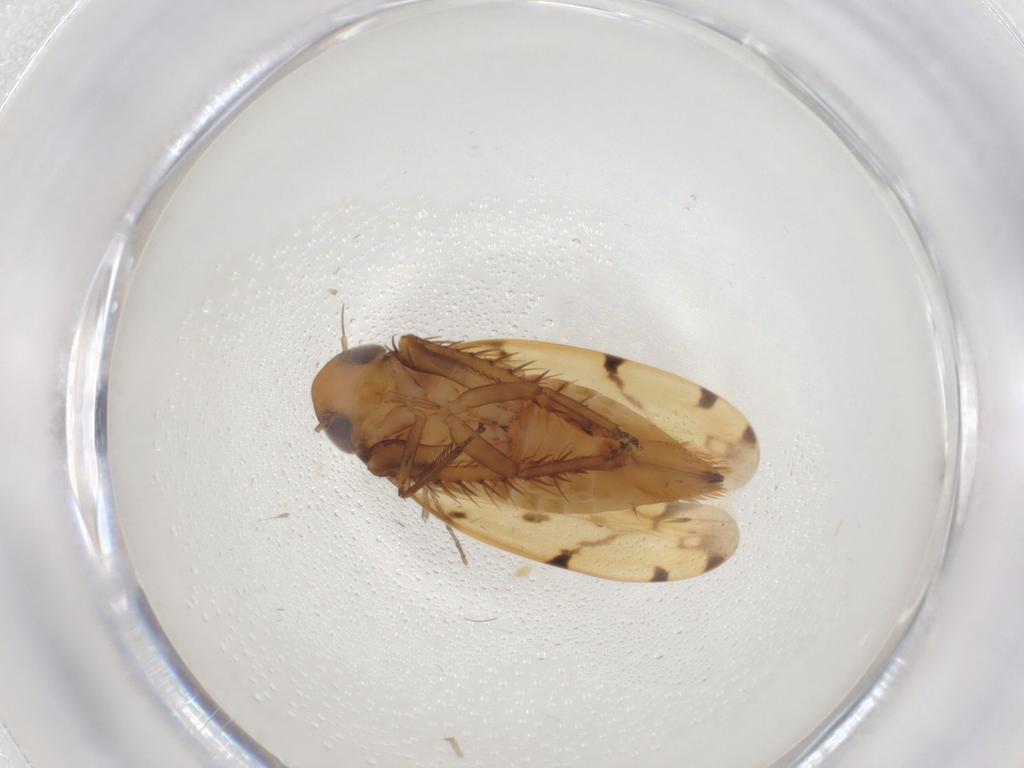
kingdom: Animalia
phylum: Arthropoda
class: Insecta
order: Hemiptera
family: Cicadellidae
